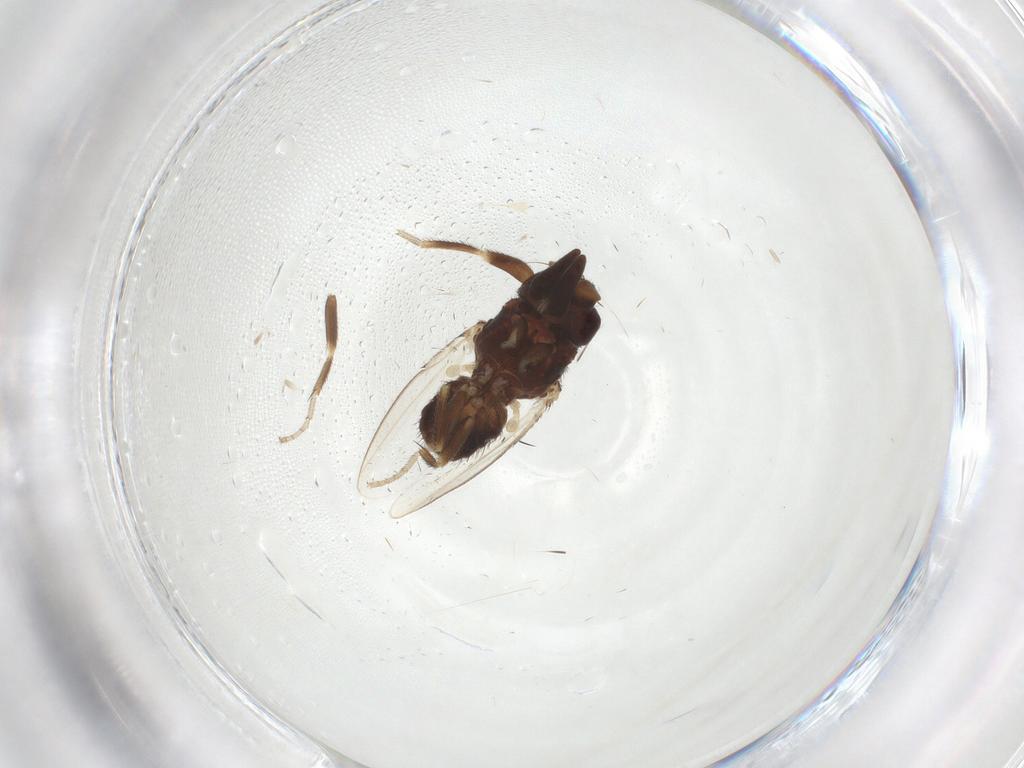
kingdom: Animalia
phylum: Arthropoda
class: Insecta
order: Diptera
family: Milichiidae
